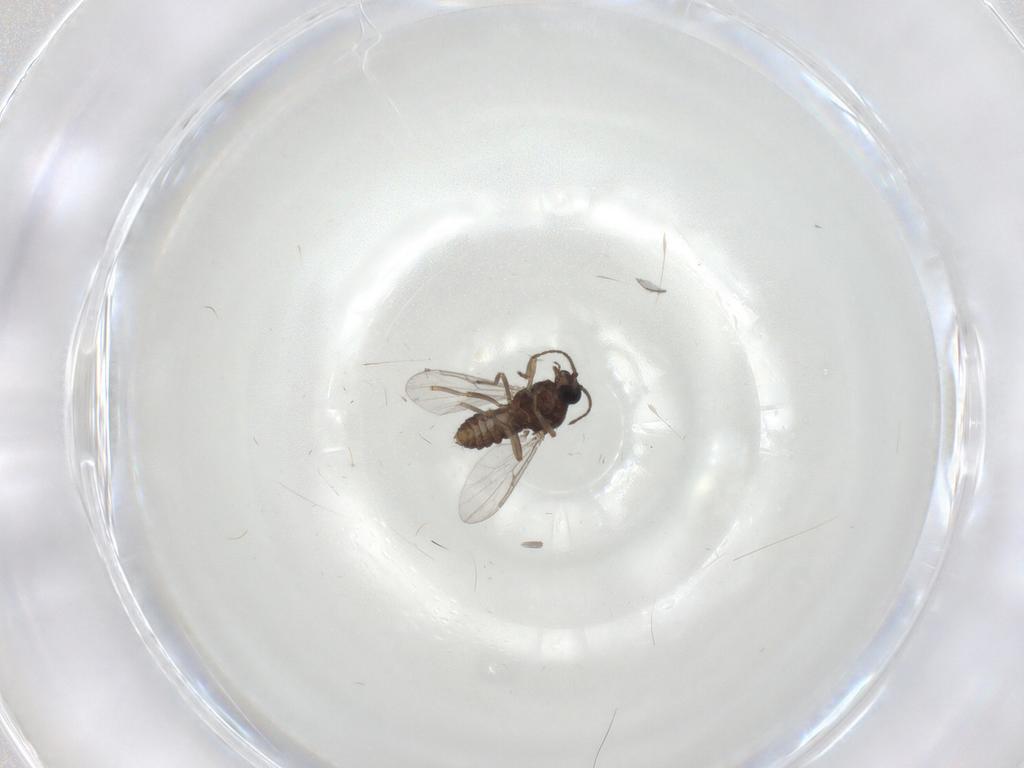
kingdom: Animalia
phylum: Arthropoda
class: Insecta
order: Diptera
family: Ceratopogonidae
